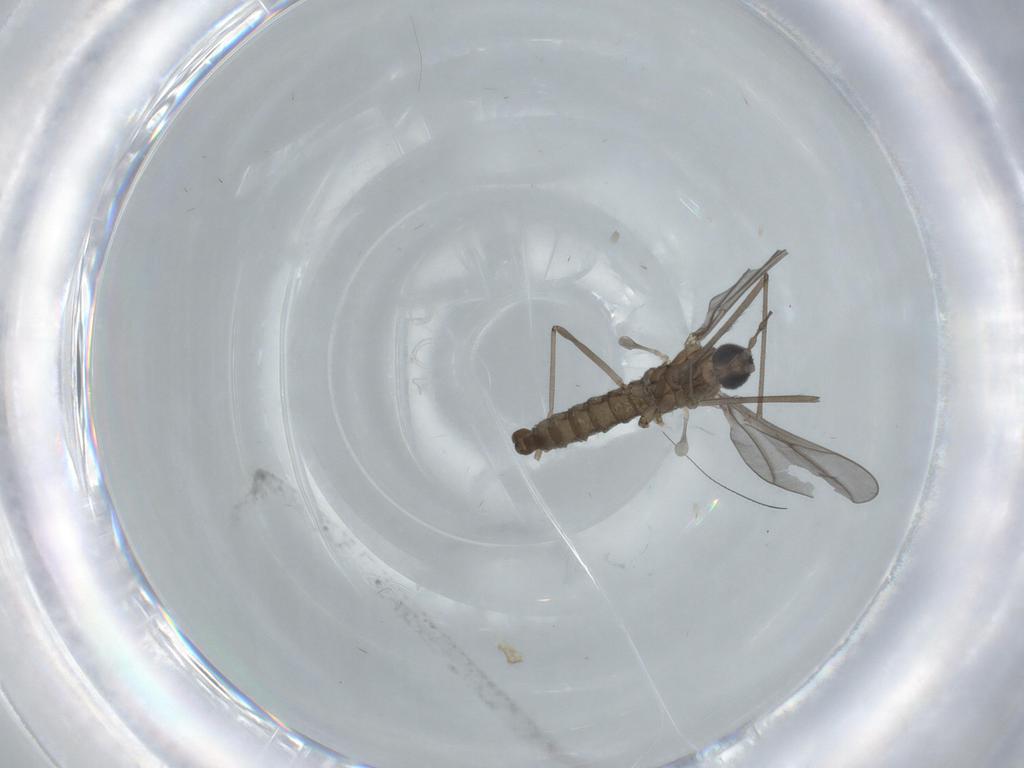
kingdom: Animalia
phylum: Arthropoda
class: Insecta
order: Diptera
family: Cecidomyiidae
